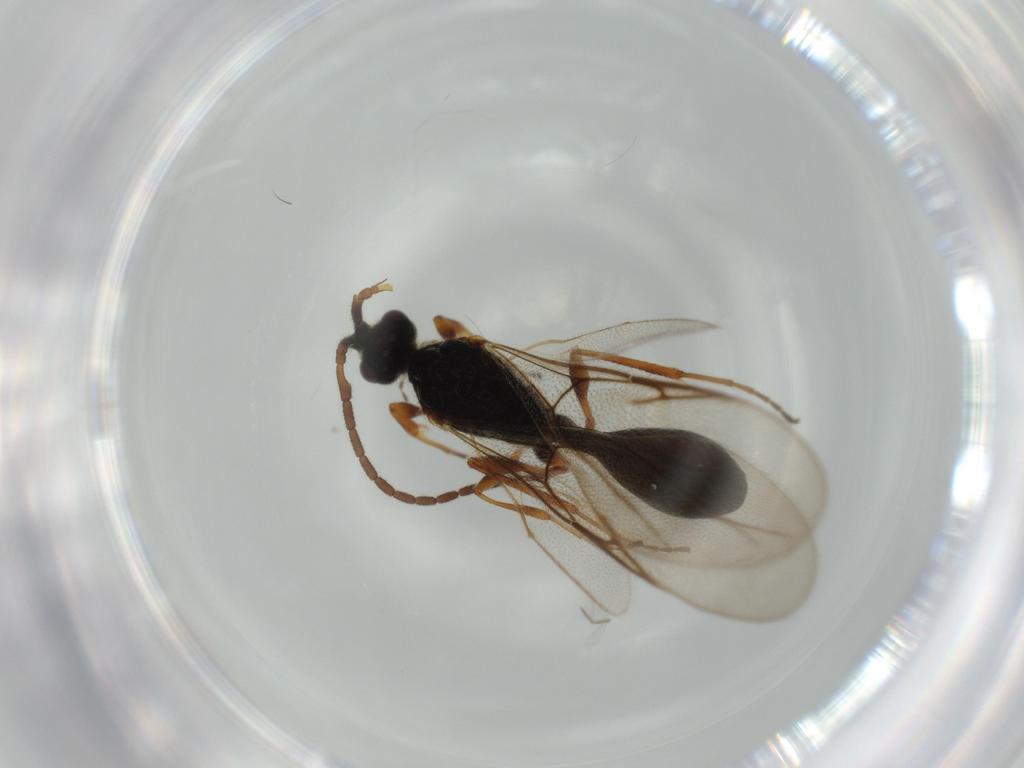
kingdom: Animalia
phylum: Arthropoda
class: Insecta
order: Hymenoptera
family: Diapriidae
